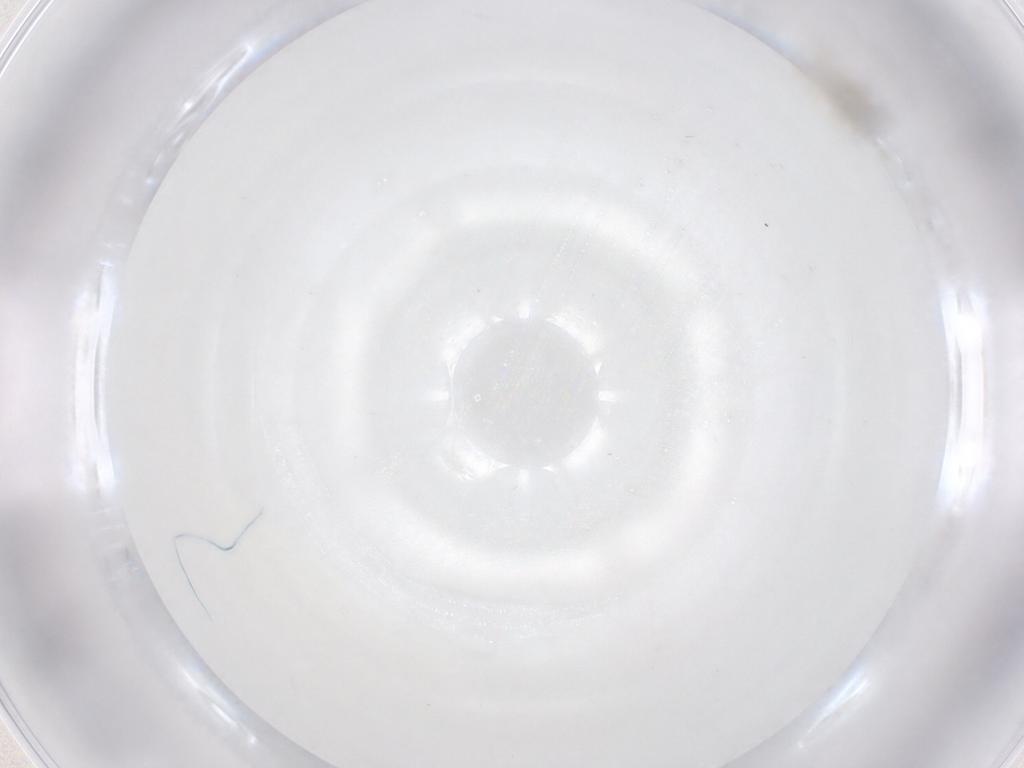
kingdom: Animalia
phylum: Arthropoda
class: Insecta
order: Diptera
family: Cecidomyiidae
